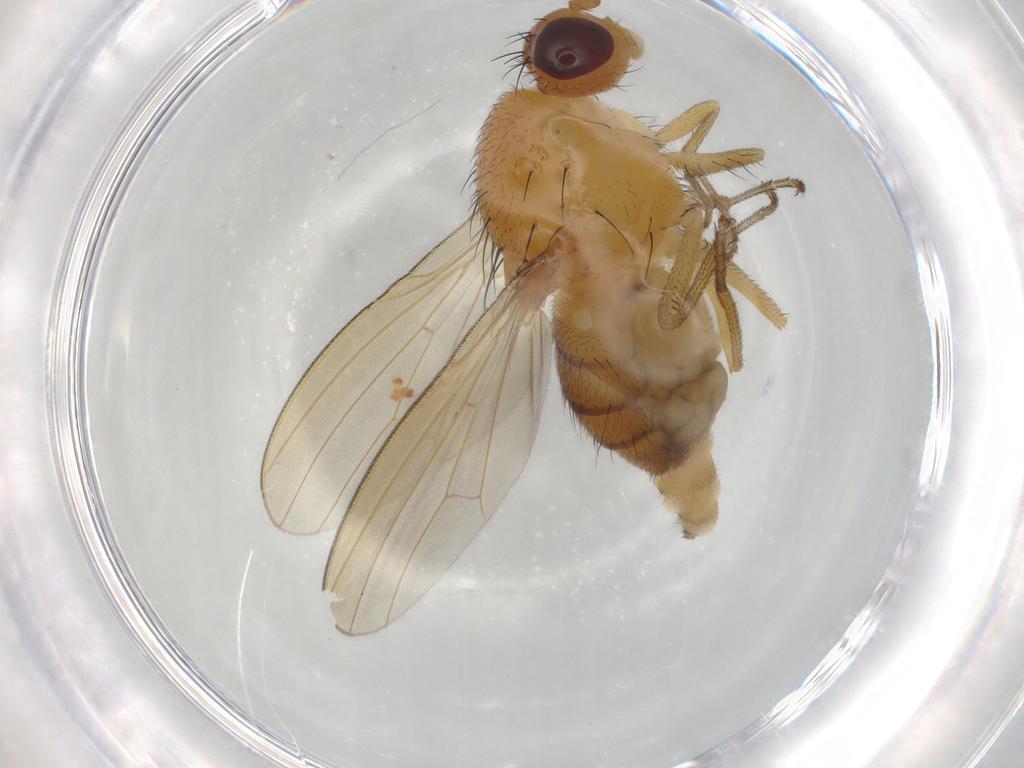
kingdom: Animalia
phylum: Arthropoda
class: Insecta
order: Diptera
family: Lauxaniidae
